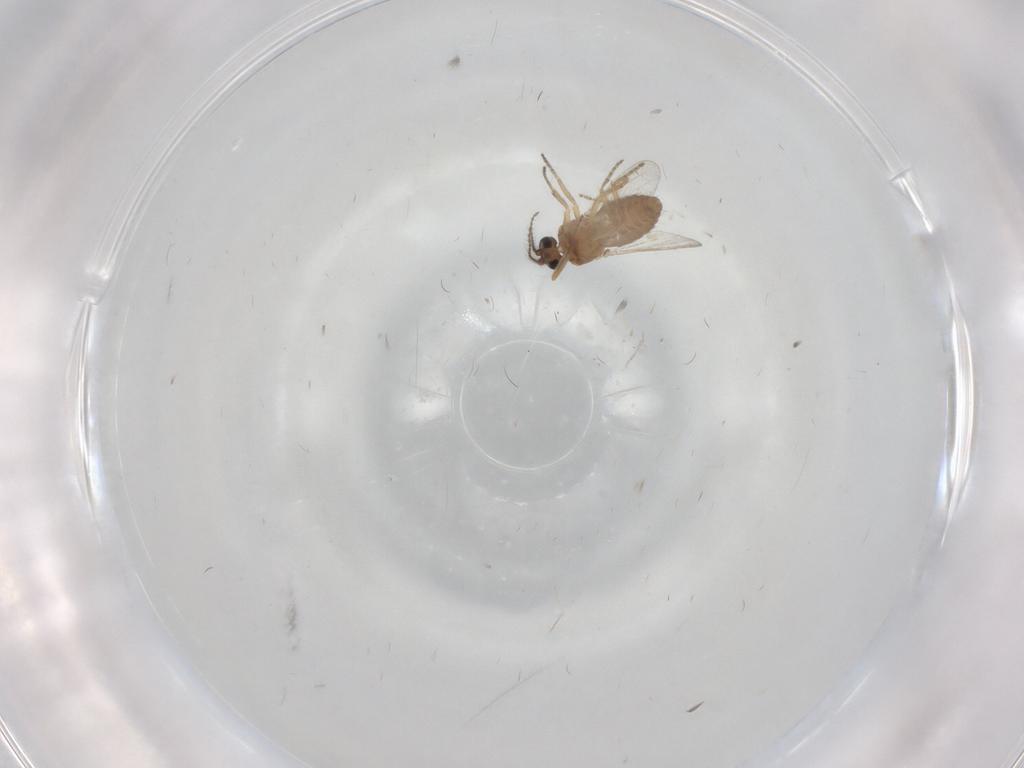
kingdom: Animalia
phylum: Arthropoda
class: Insecta
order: Diptera
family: Ceratopogonidae
